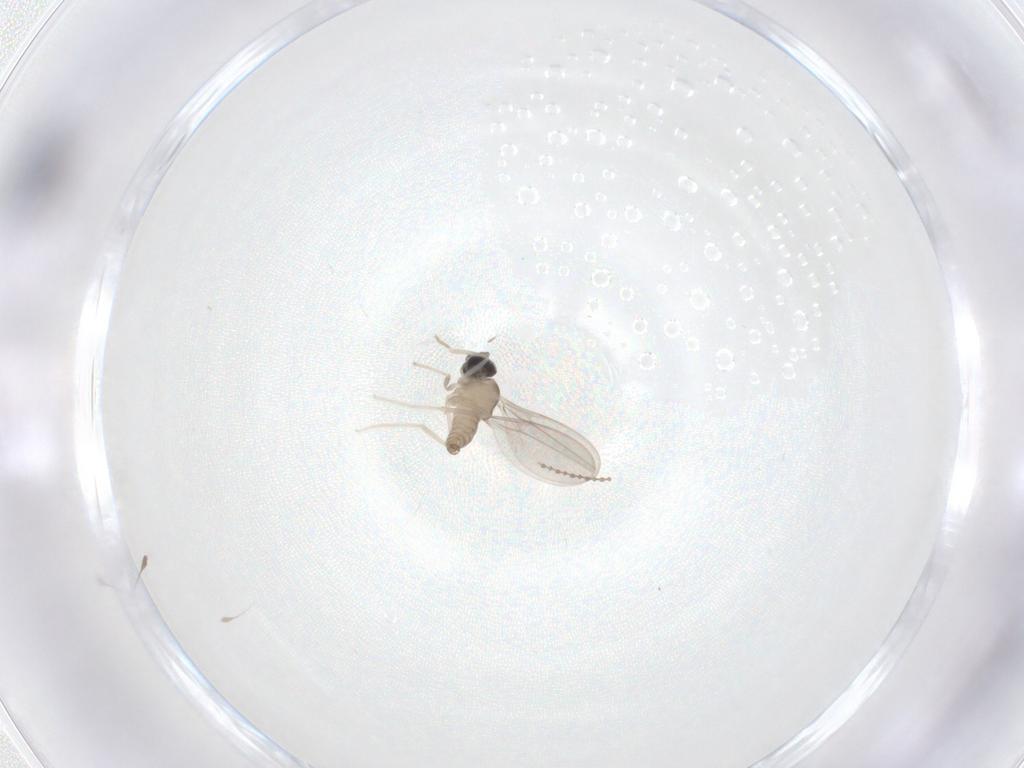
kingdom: Animalia
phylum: Arthropoda
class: Insecta
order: Diptera
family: Cecidomyiidae
